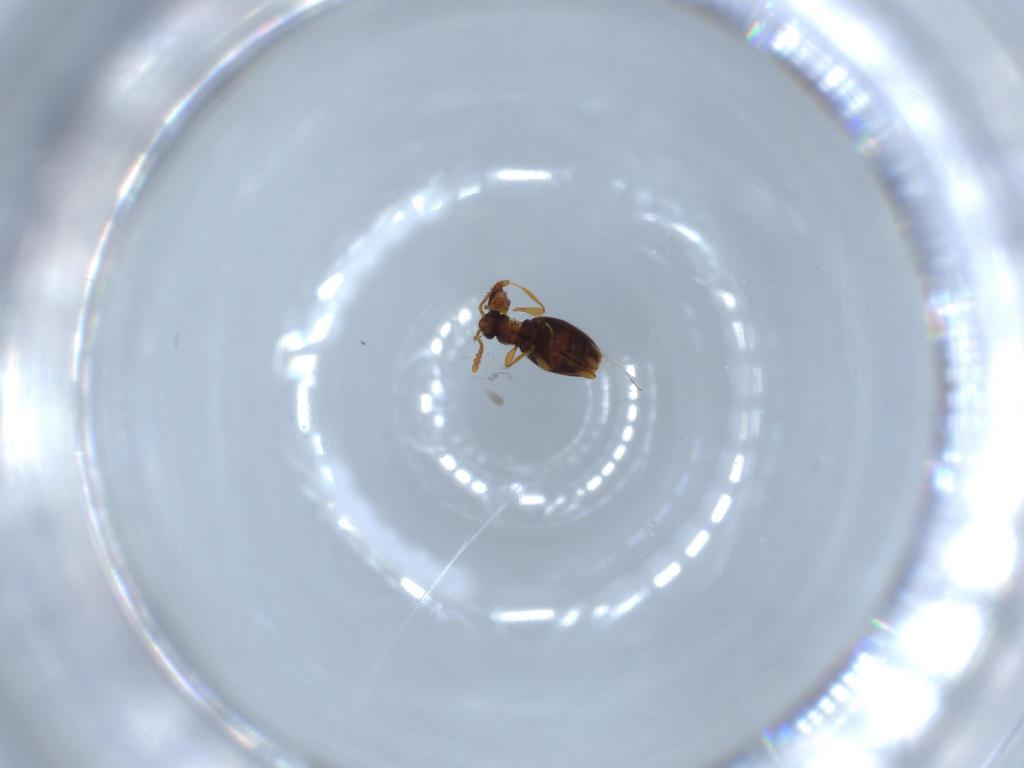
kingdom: Animalia
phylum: Arthropoda
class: Insecta
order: Coleoptera
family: Staphylinidae
